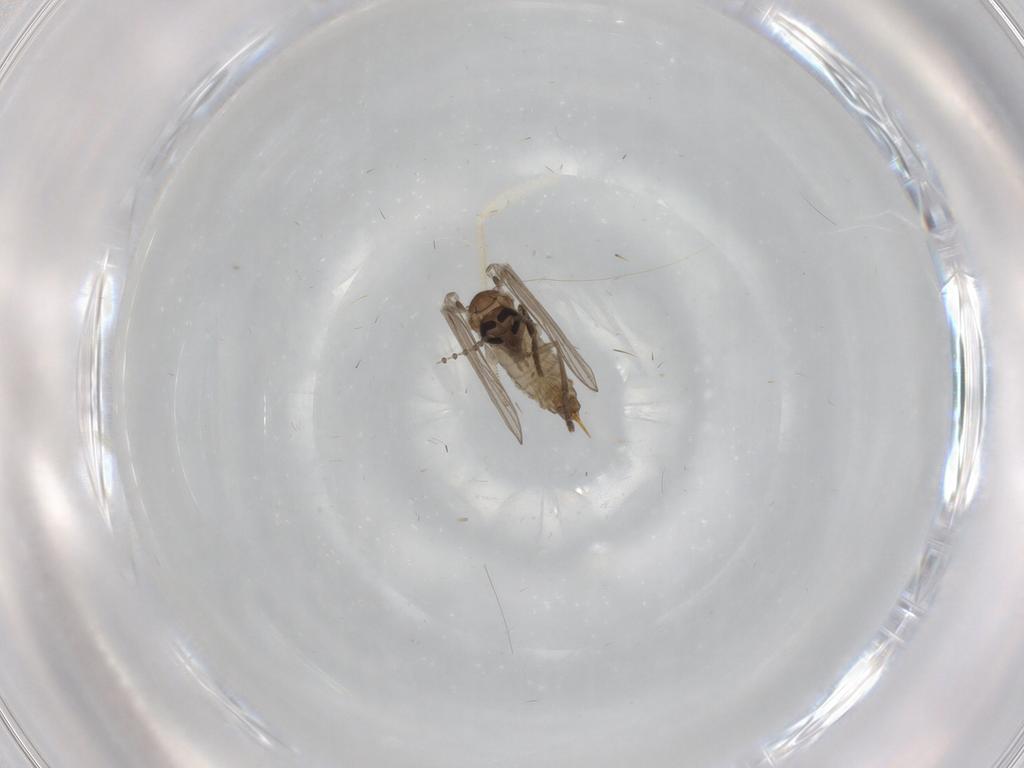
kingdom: Animalia
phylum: Arthropoda
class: Insecta
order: Diptera
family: Psychodidae
